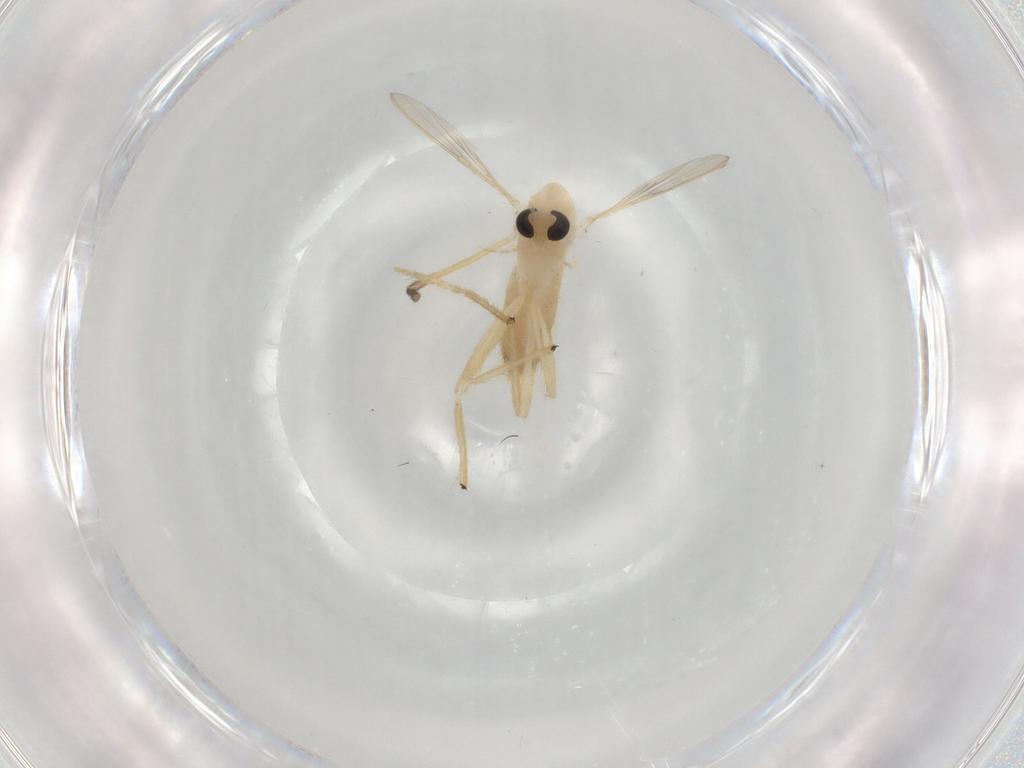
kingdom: Animalia
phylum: Arthropoda
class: Insecta
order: Diptera
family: Chironomidae
